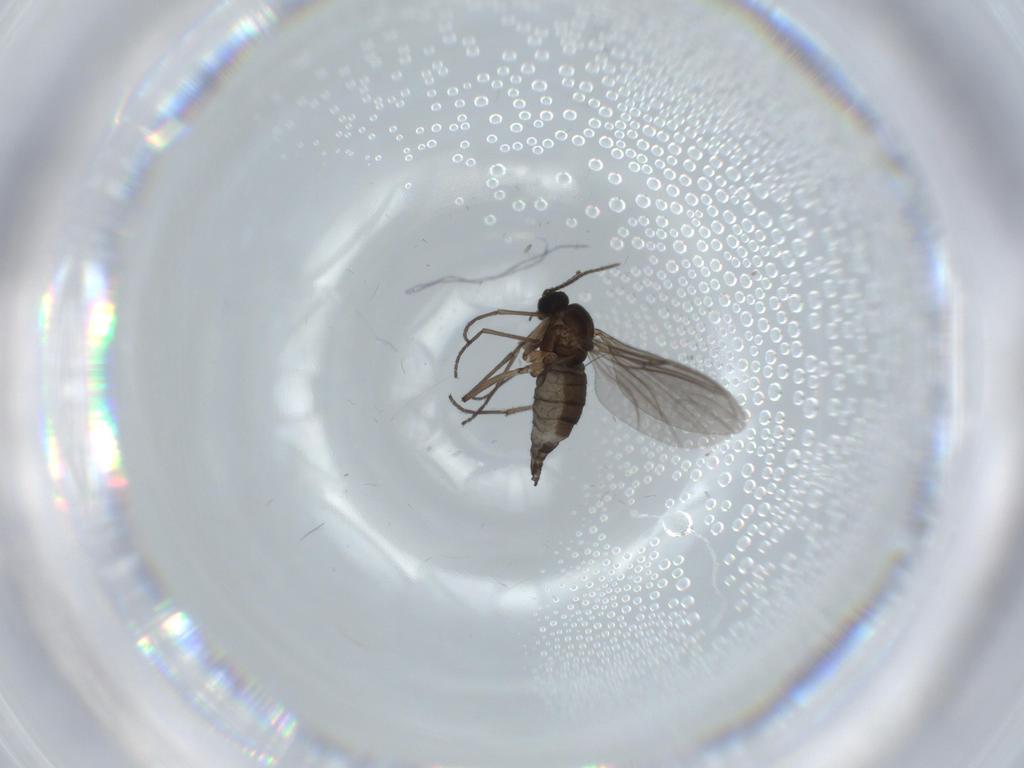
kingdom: Animalia
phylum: Arthropoda
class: Insecta
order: Diptera
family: Sciaridae
